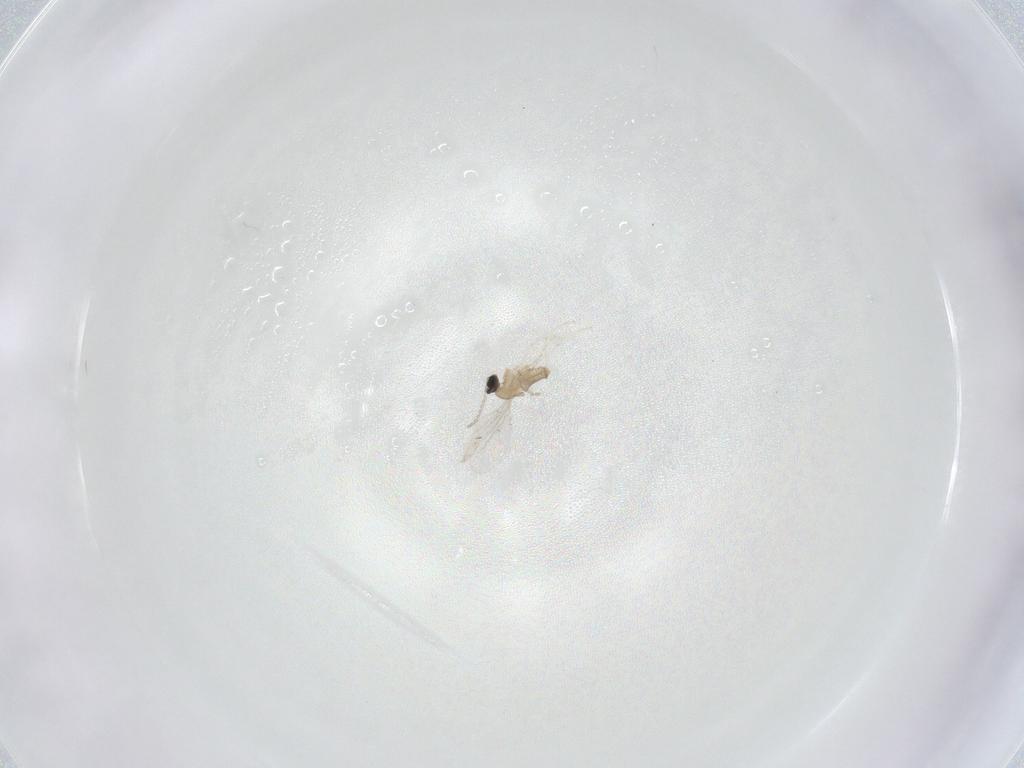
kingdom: Animalia
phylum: Arthropoda
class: Insecta
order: Diptera
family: Cecidomyiidae
